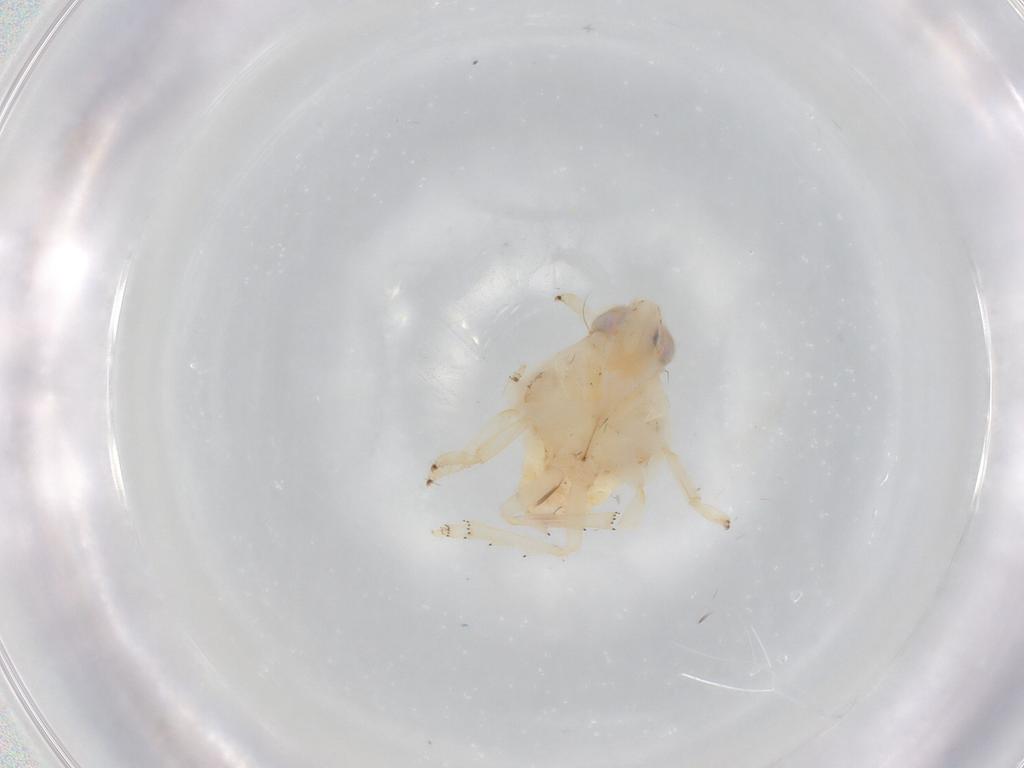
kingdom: Animalia
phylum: Arthropoda
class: Insecta
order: Hemiptera
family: Aleyrodidae
